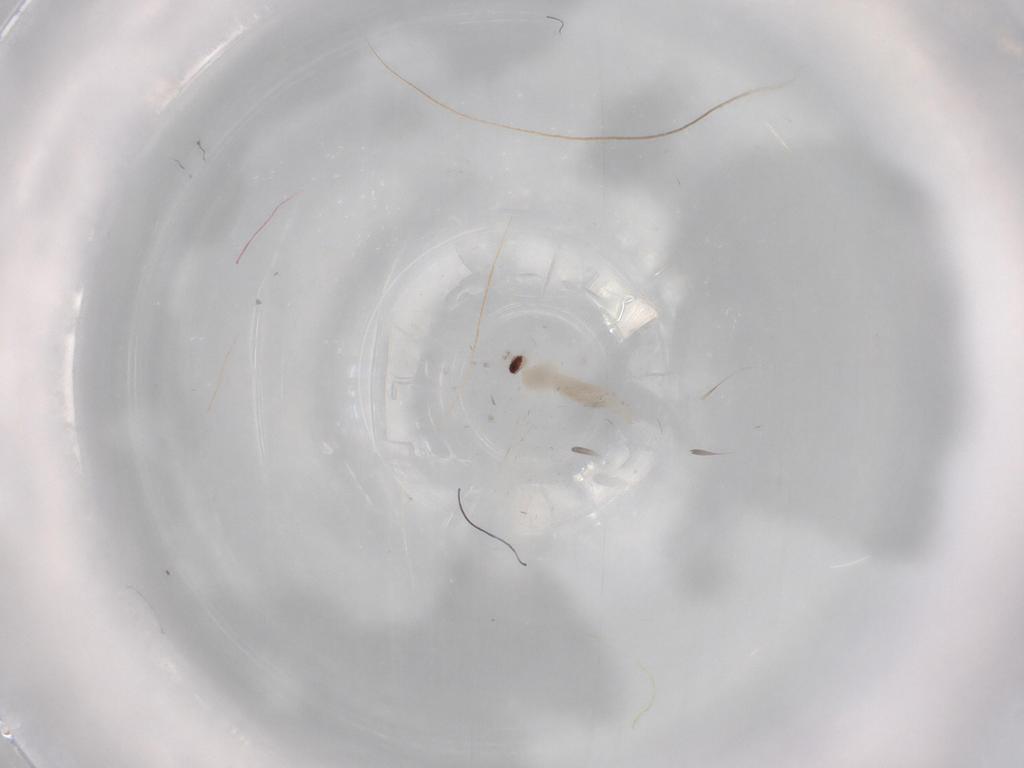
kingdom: Animalia
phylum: Arthropoda
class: Insecta
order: Diptera
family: Cecidomyiidae
